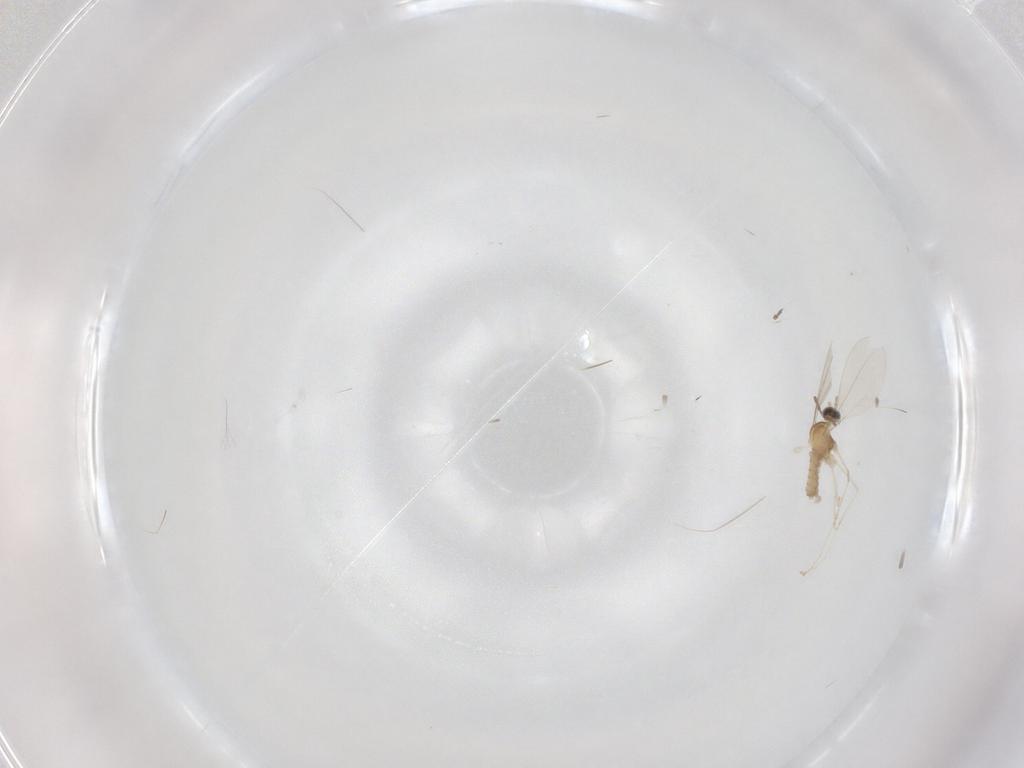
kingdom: Animalia
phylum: Arthropoda
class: Insecta
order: Diptera
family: Cecidomyiidae
